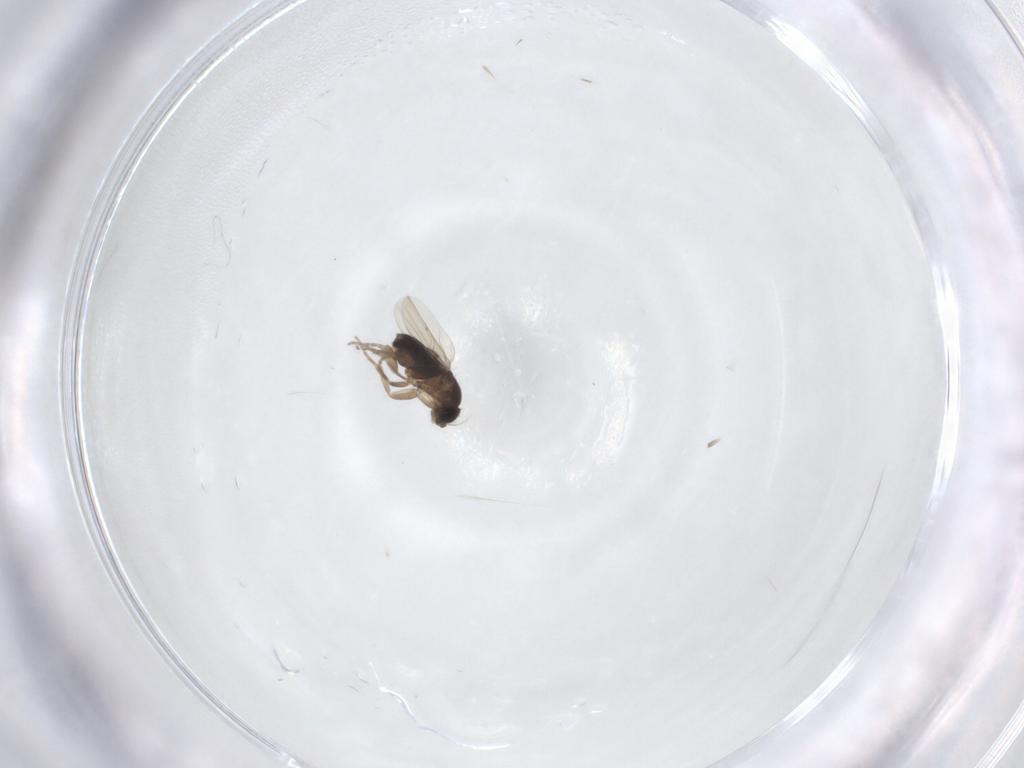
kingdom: Animalia
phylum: Arthropoda
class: Insecta
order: Diptera
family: Phoridae
